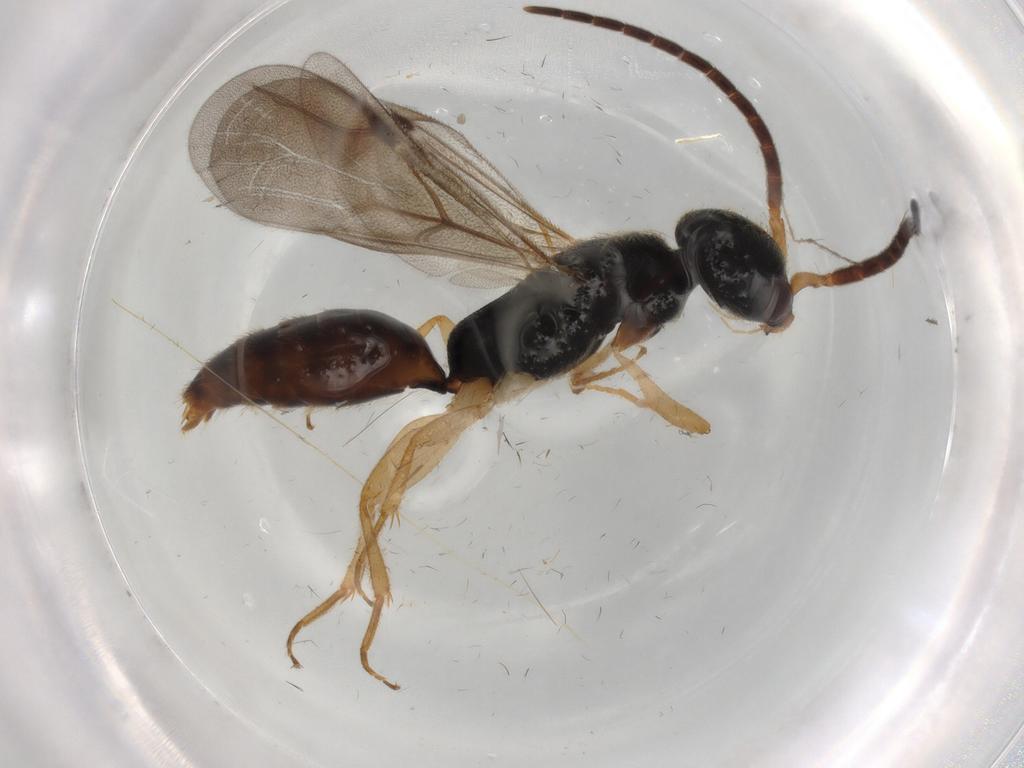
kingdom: Animalia
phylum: Arthropoda
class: Insecta
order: Hymenoptera
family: Bethylidae
